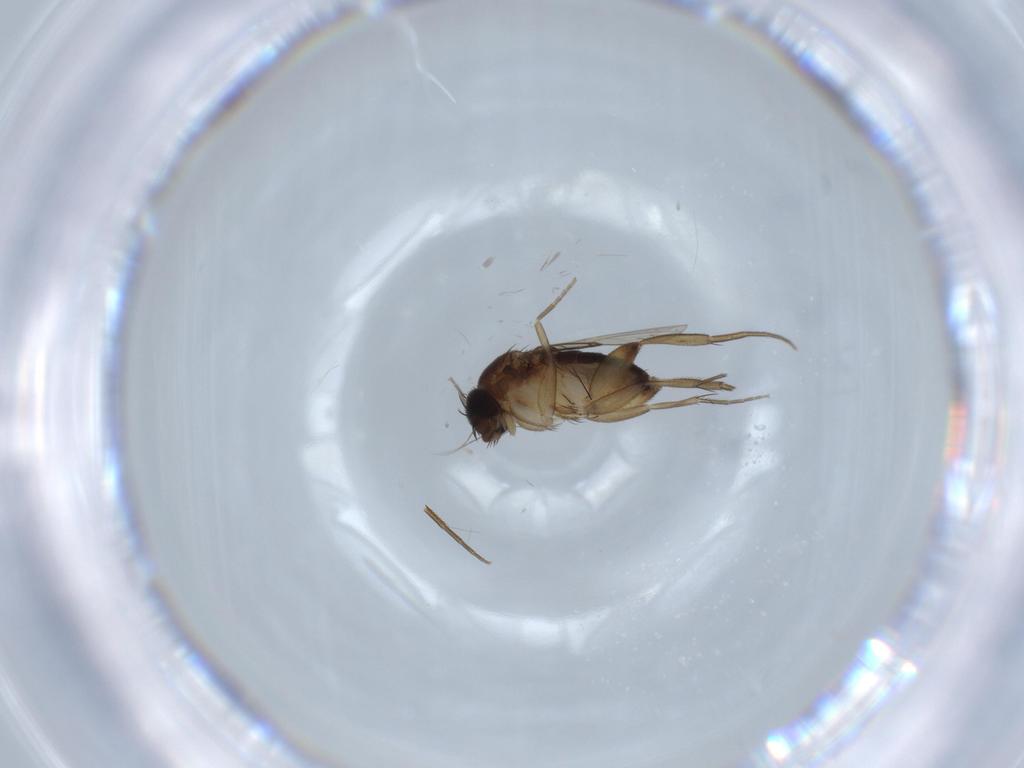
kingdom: Animalia
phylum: Arthropoda
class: Insecta
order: Diptera
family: Phoridae
